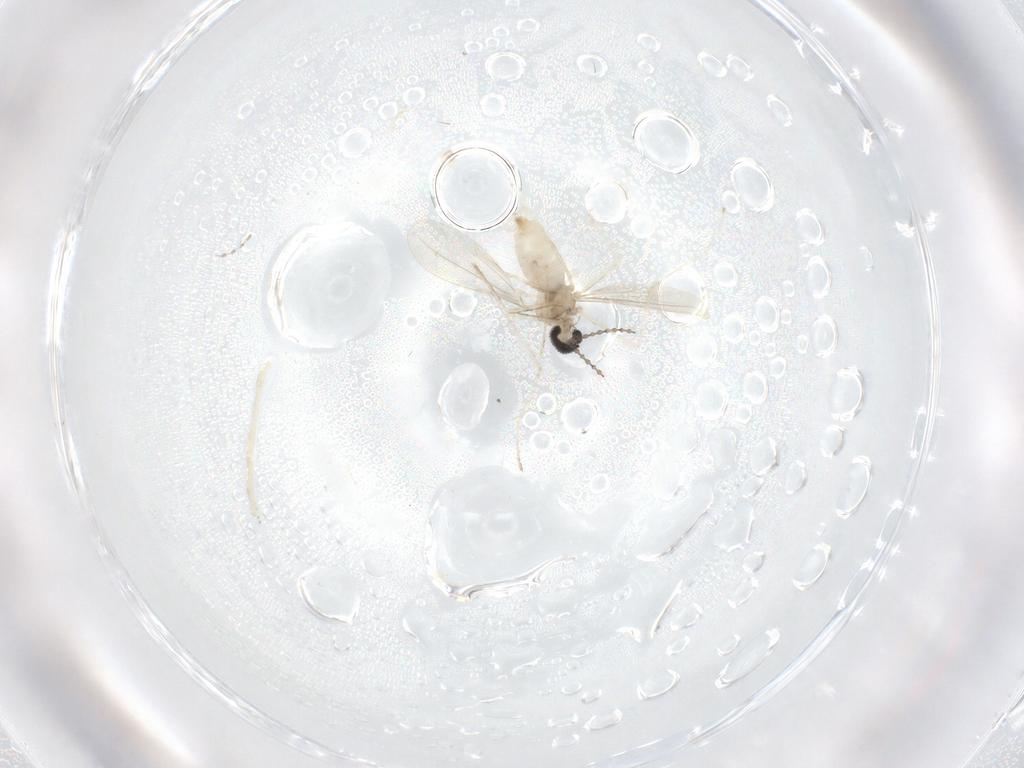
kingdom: Animalia
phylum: Arthropoda
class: Insecta
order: Diptera
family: Cecidomyiidae
